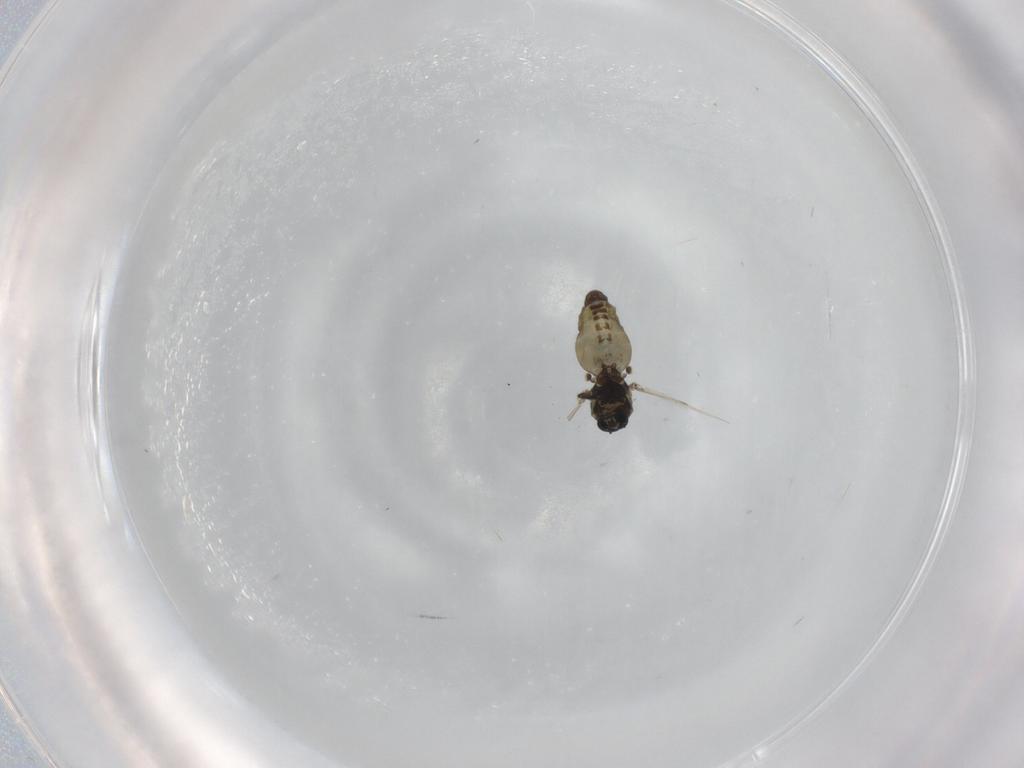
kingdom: Animalia
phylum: Arthropoda
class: Insecta
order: Diptera
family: Ceratopogonidae
